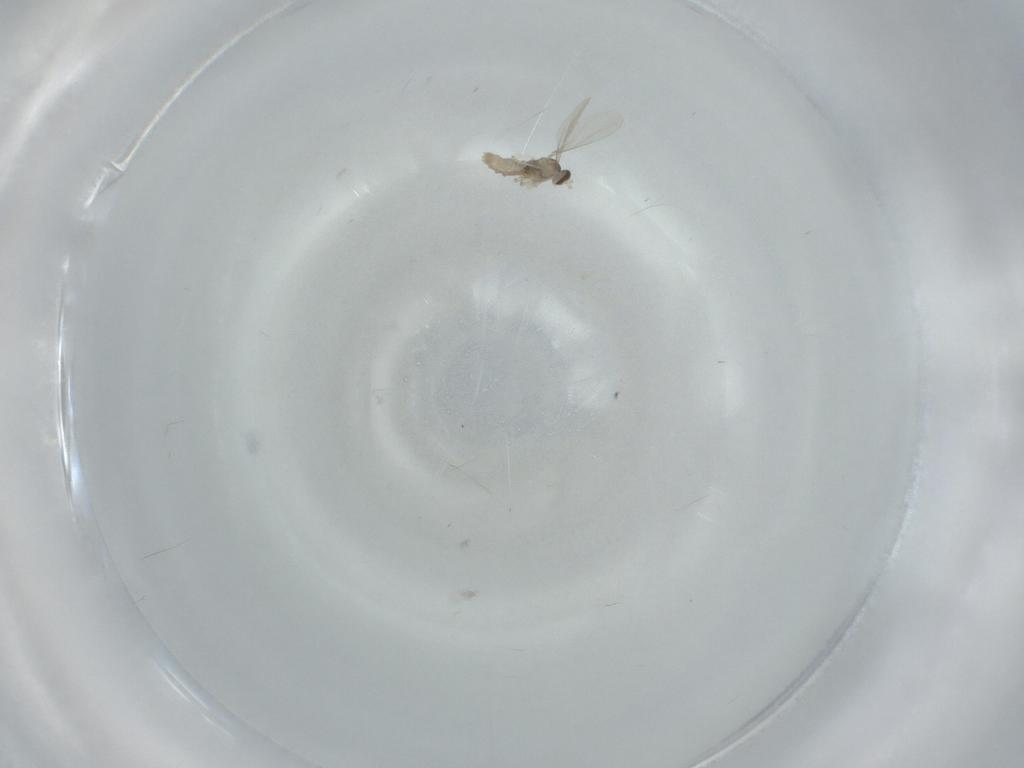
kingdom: Animalia
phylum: Arthropoda
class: Insecta
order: Diptera
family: Cecidomyiidae
